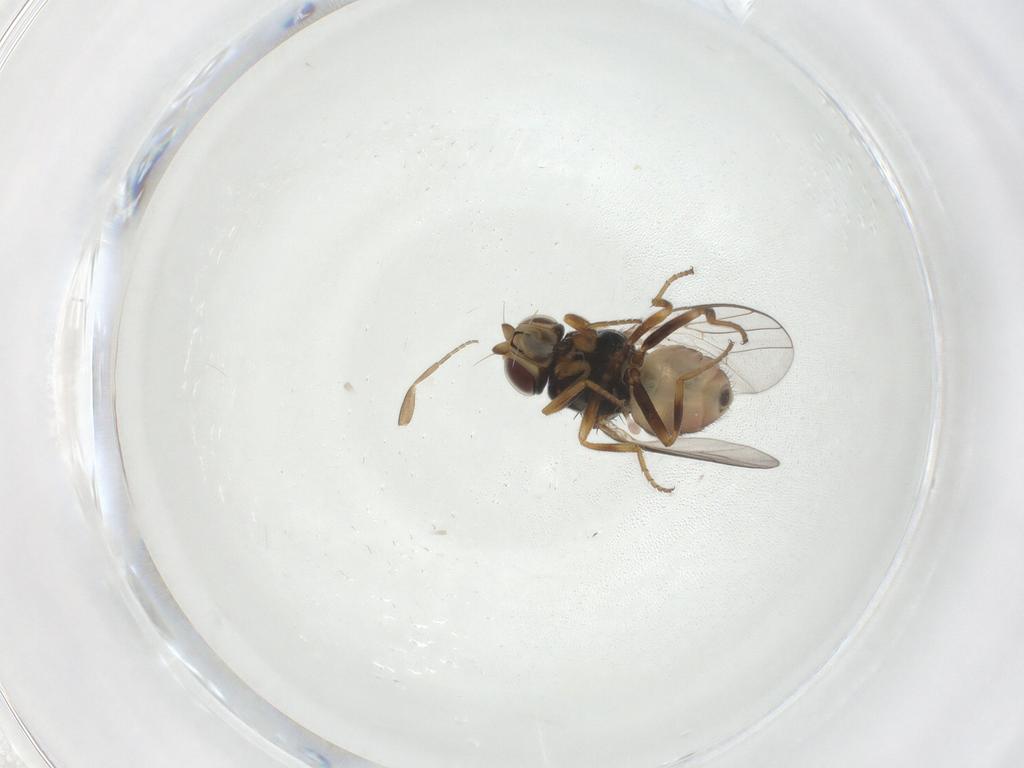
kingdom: Animalia
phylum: Arthropoda
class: Insecta
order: Diptera
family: Chloropidae
